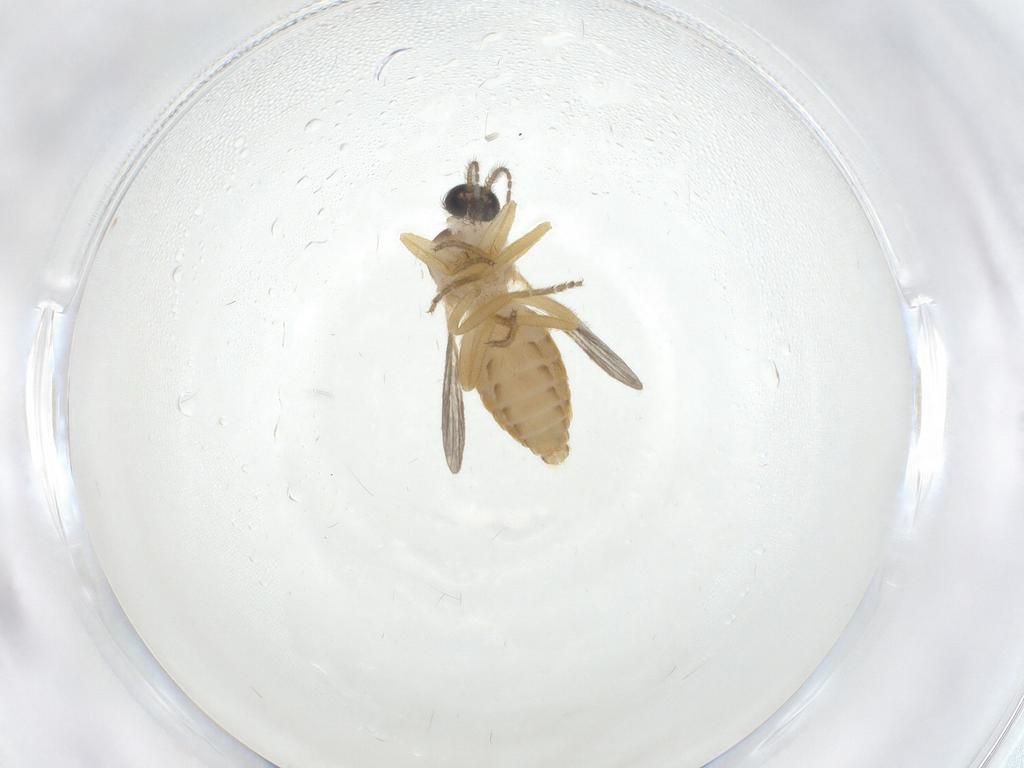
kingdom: Animalia
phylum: Arthropoda
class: Insecta
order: Diptera
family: Ceratopogonidae
